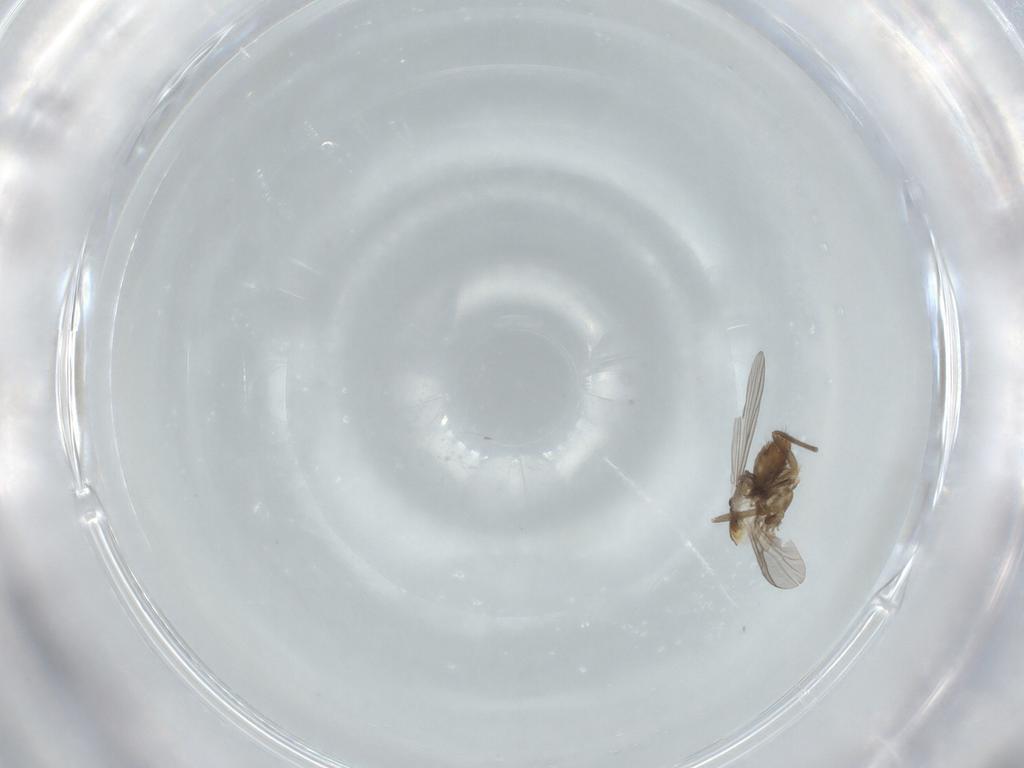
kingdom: Animalia
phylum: Arthropoda
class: Insecta
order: Diptera
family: Chironomidae
